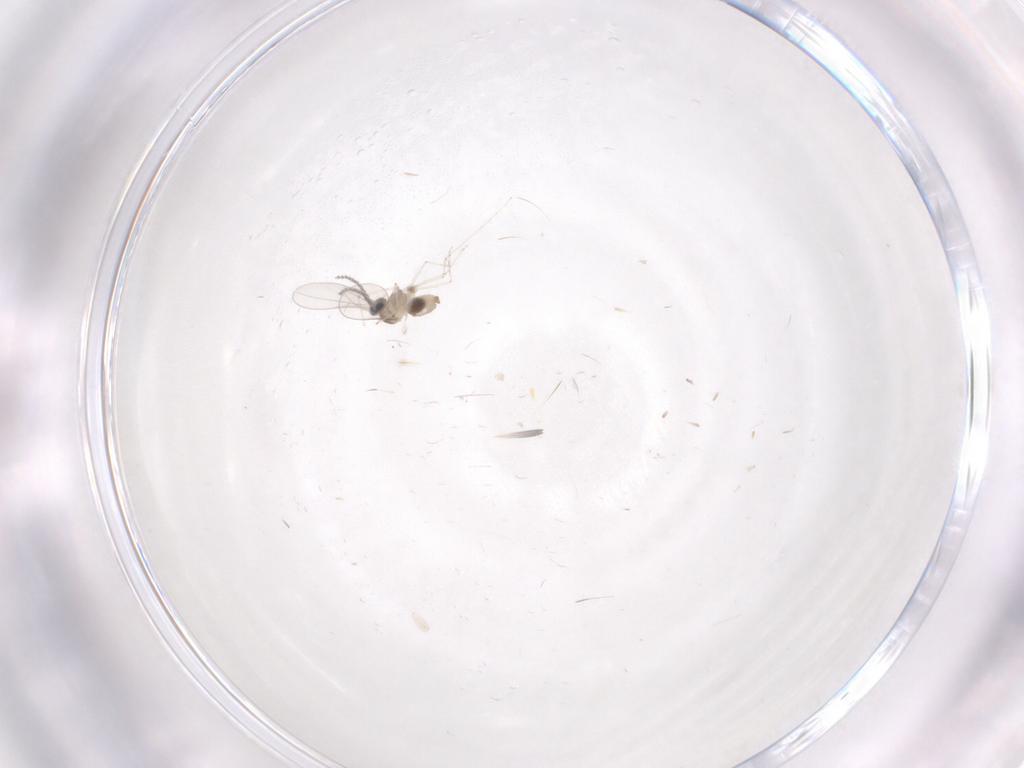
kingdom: Animalia
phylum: Arthropoda
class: Insecta
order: Diptera
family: Cecidomyiidae
